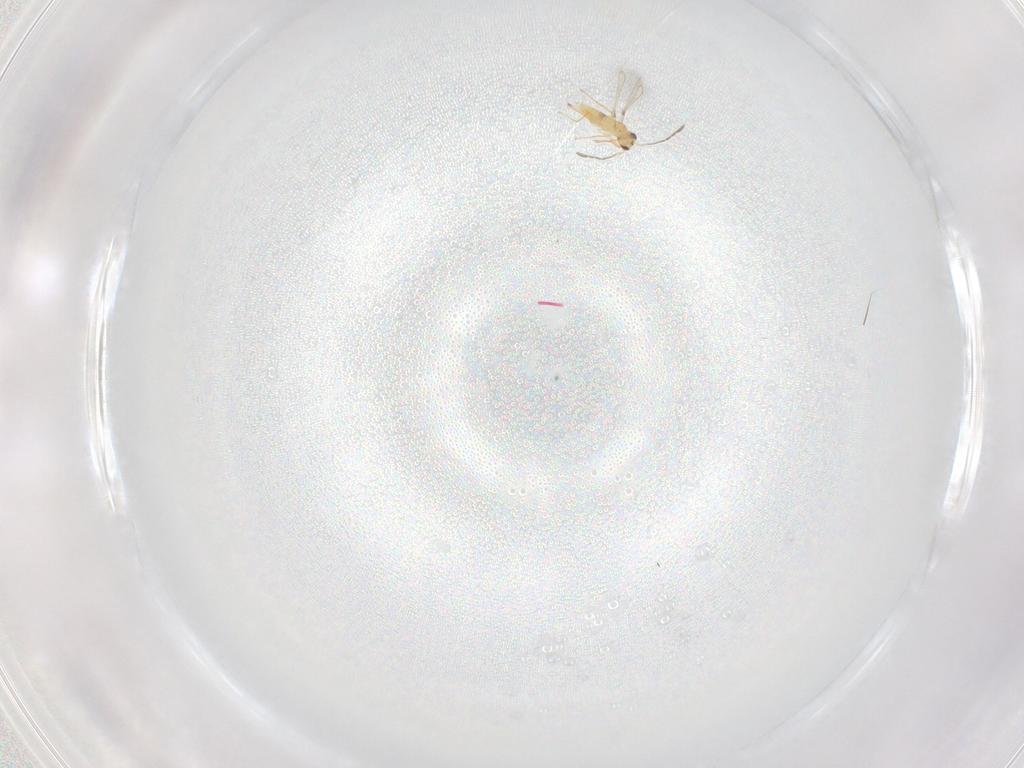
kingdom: Animalia
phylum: Arthropoda
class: Insecta
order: Hymenoptera
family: Mymaridae
